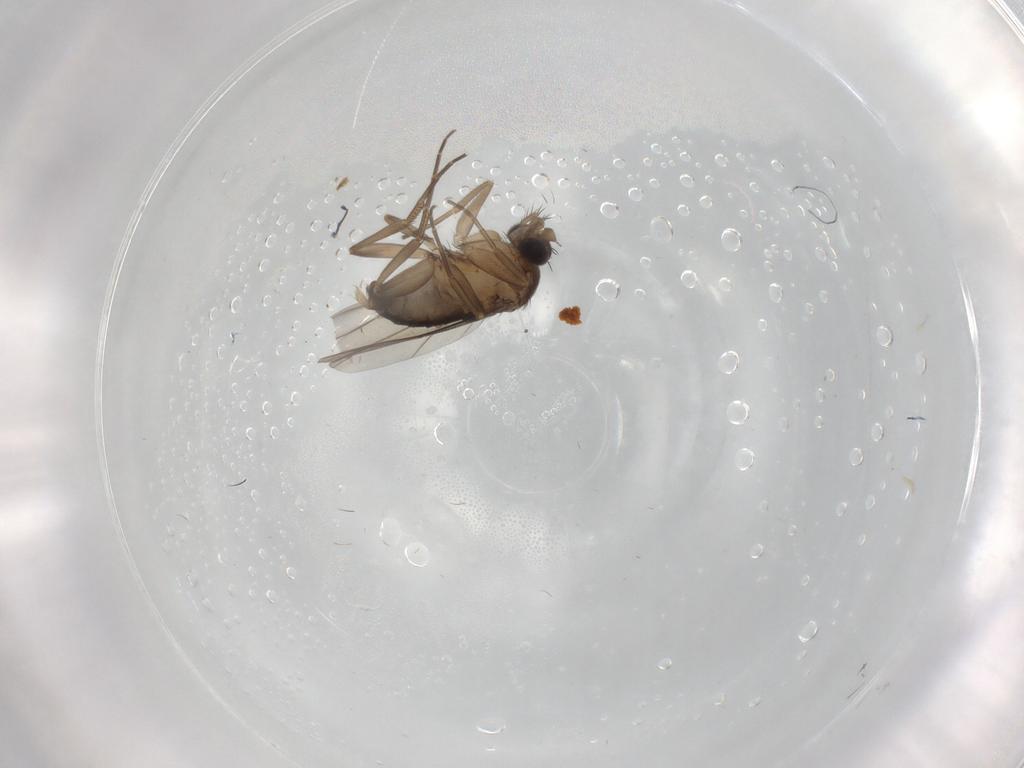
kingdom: Animalia
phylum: Arthropoda
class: Insecta
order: Diptera
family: Phoridae
